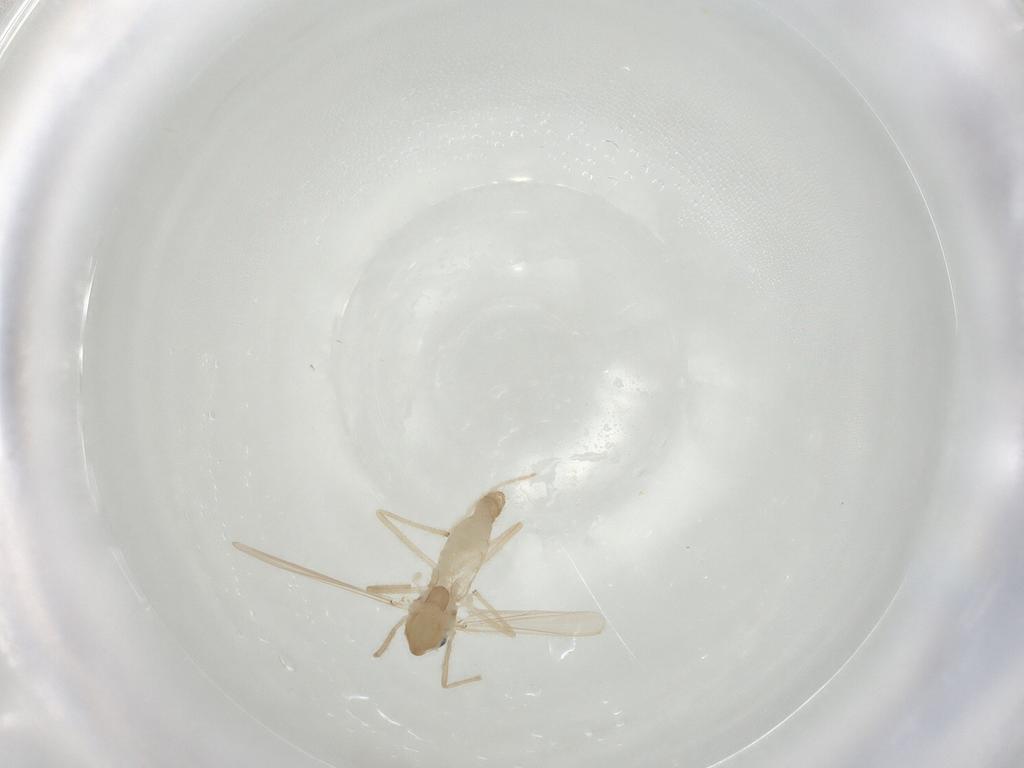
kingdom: Animalia
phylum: Arthropoda
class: Insecta
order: Diptera
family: Chironomidae
